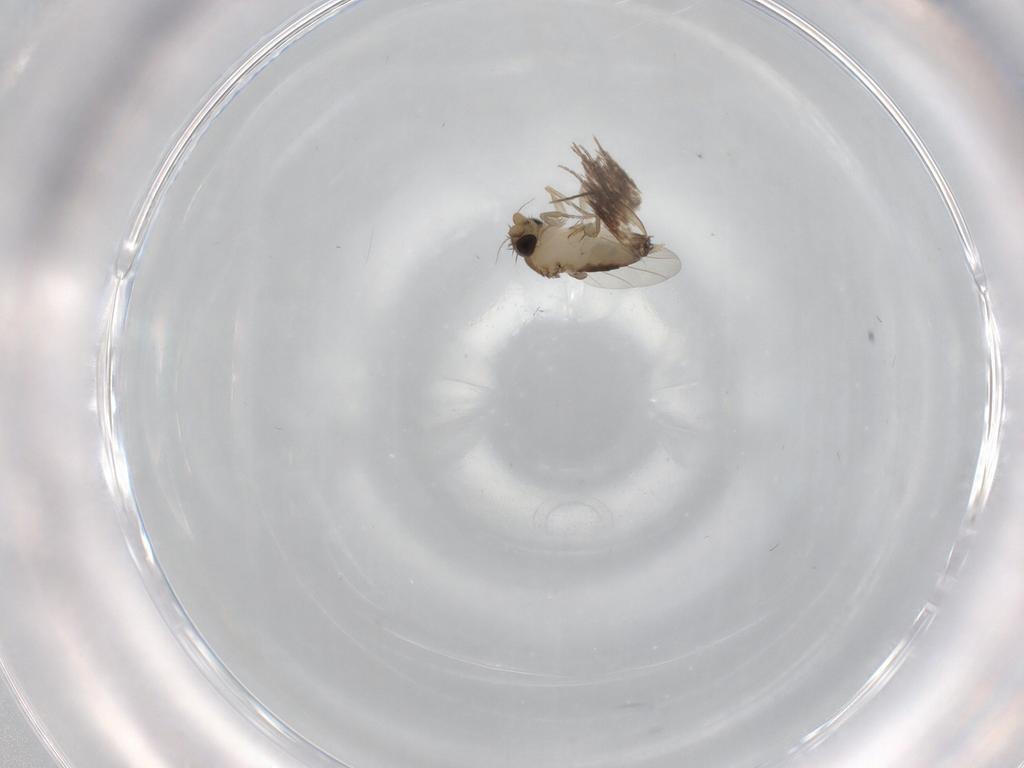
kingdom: Animalia
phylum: Arthropoda
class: Insecta
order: Diptera
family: Phoridae
